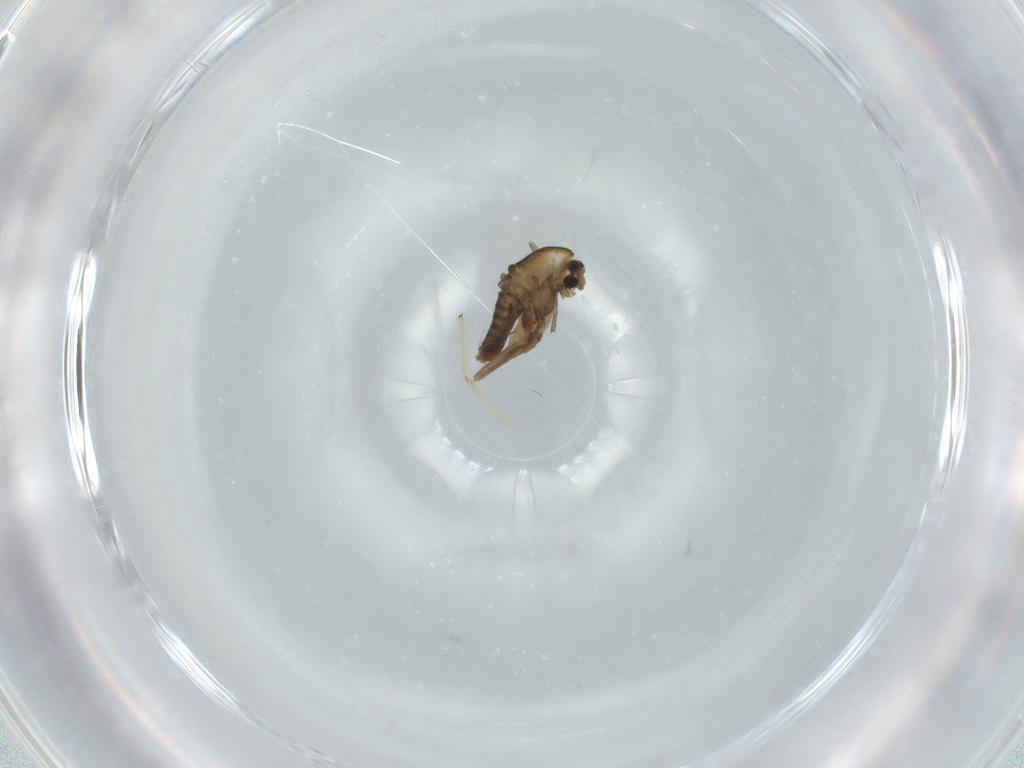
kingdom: Animalia
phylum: Arthropoda
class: Insecta
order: Diptera
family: Chironomidae
